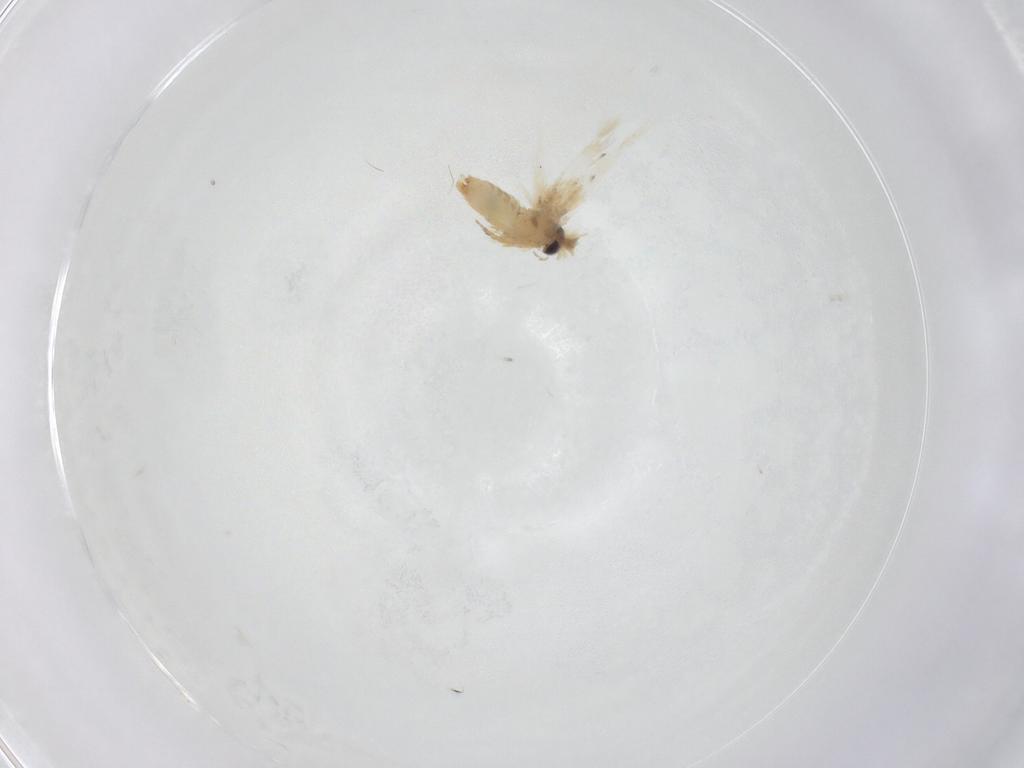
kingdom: Animalia
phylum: Arthropoda
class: Insecta
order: Lepidoptera
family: Crambidae
